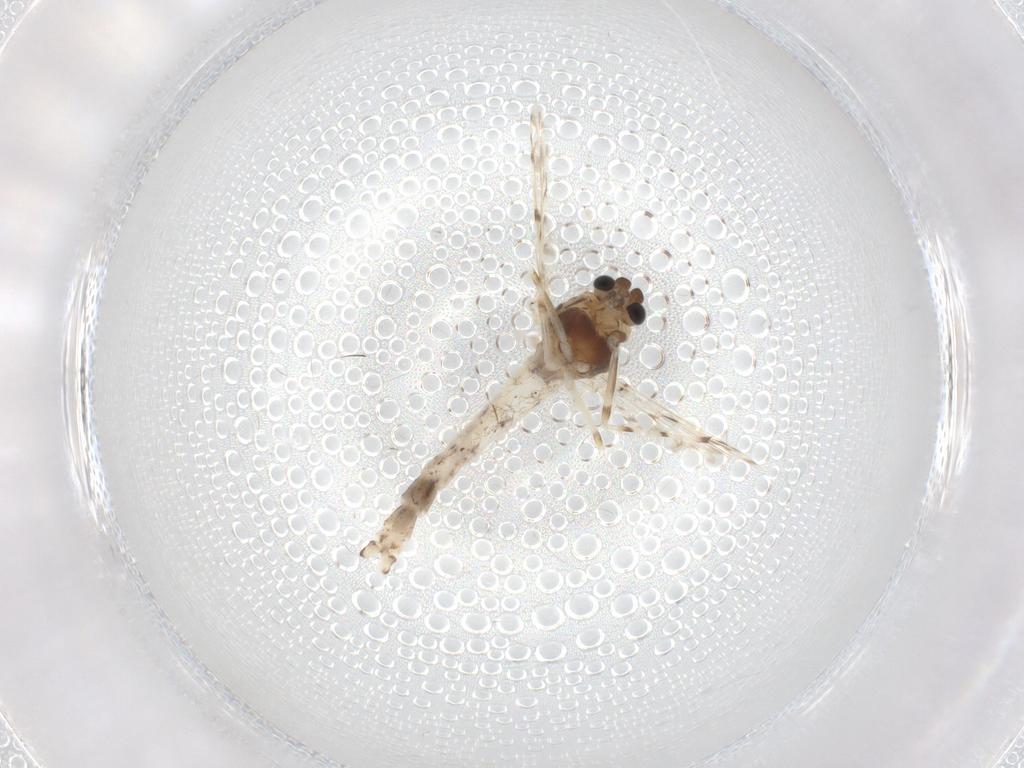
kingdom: Animalia
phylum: Arthropoda
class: Insecta
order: Diptera
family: Chironomidae
